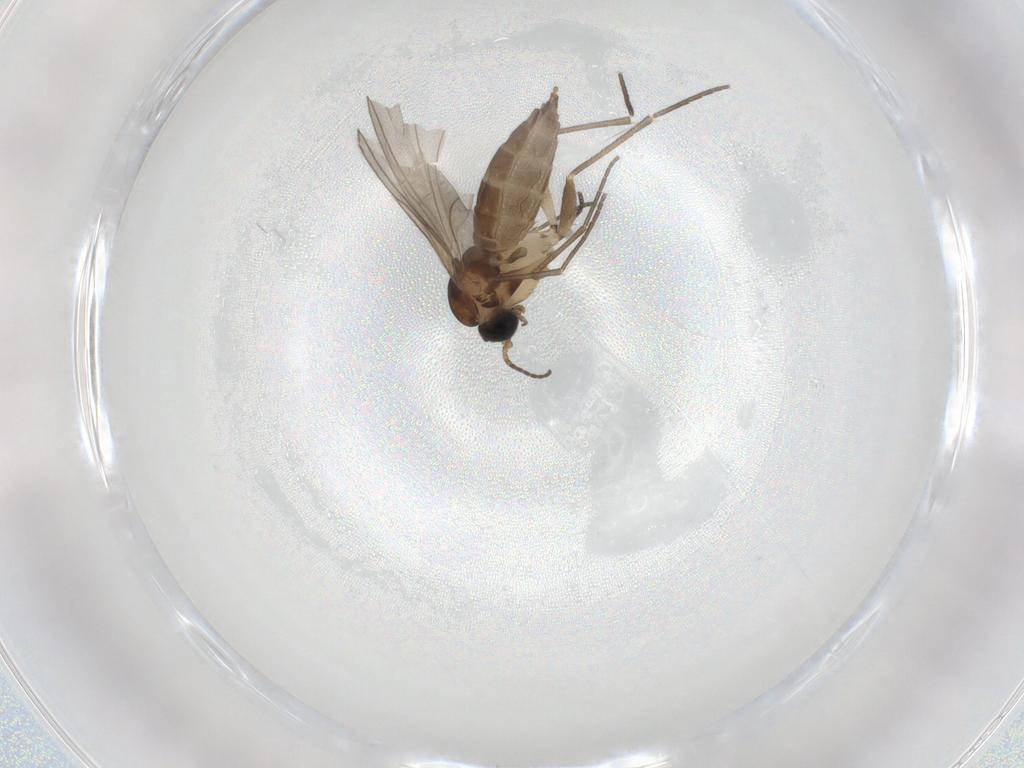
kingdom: Animalia
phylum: Arthropoda
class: Insecta
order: Diptera
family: Sciaridae
